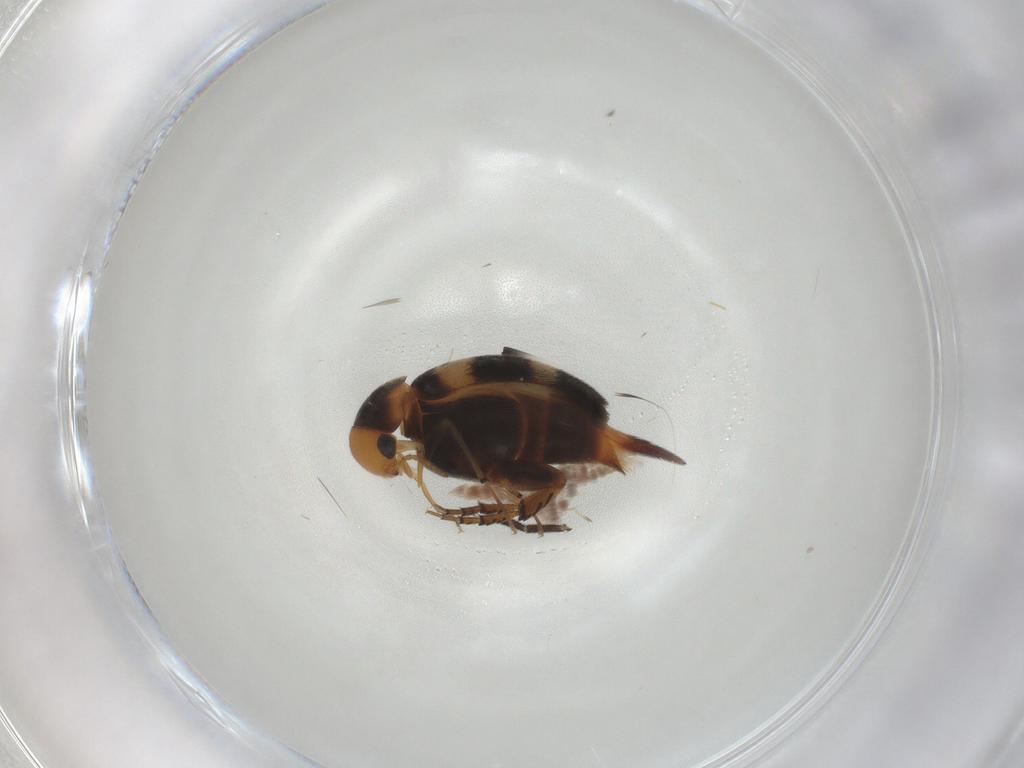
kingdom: Animalia
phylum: Arthropoda
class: Insecta
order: Coleoptera
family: Mordellidae
